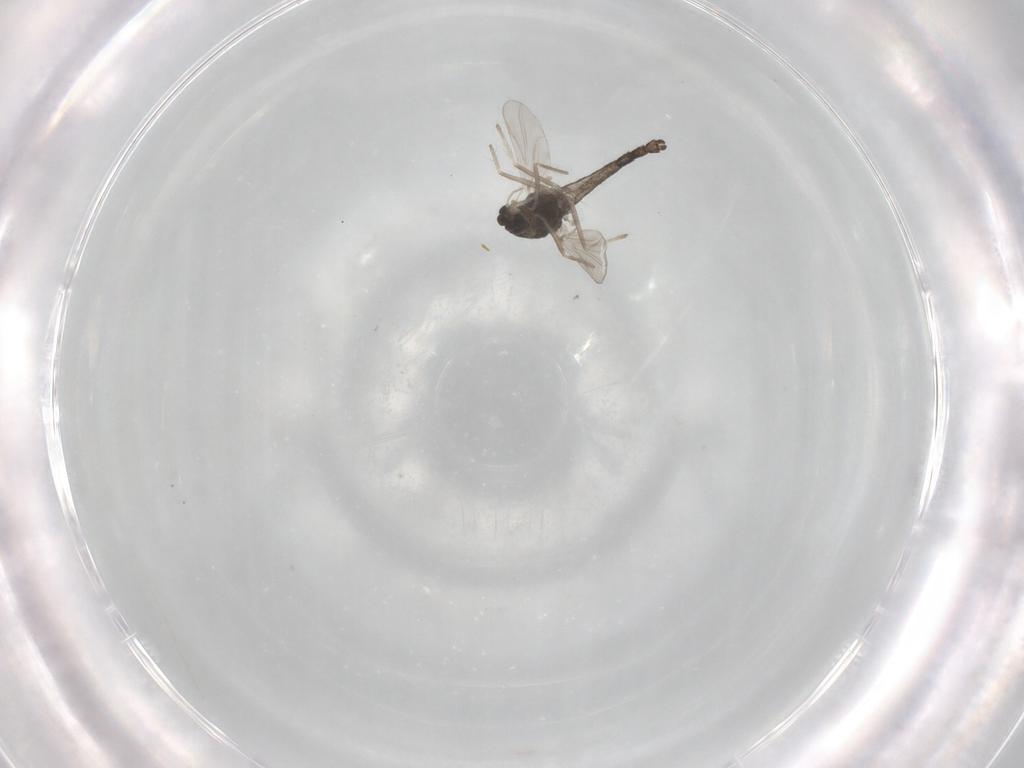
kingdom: Animalia
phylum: Arthropoda
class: Insecta
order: Diptera
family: Chironomidae
